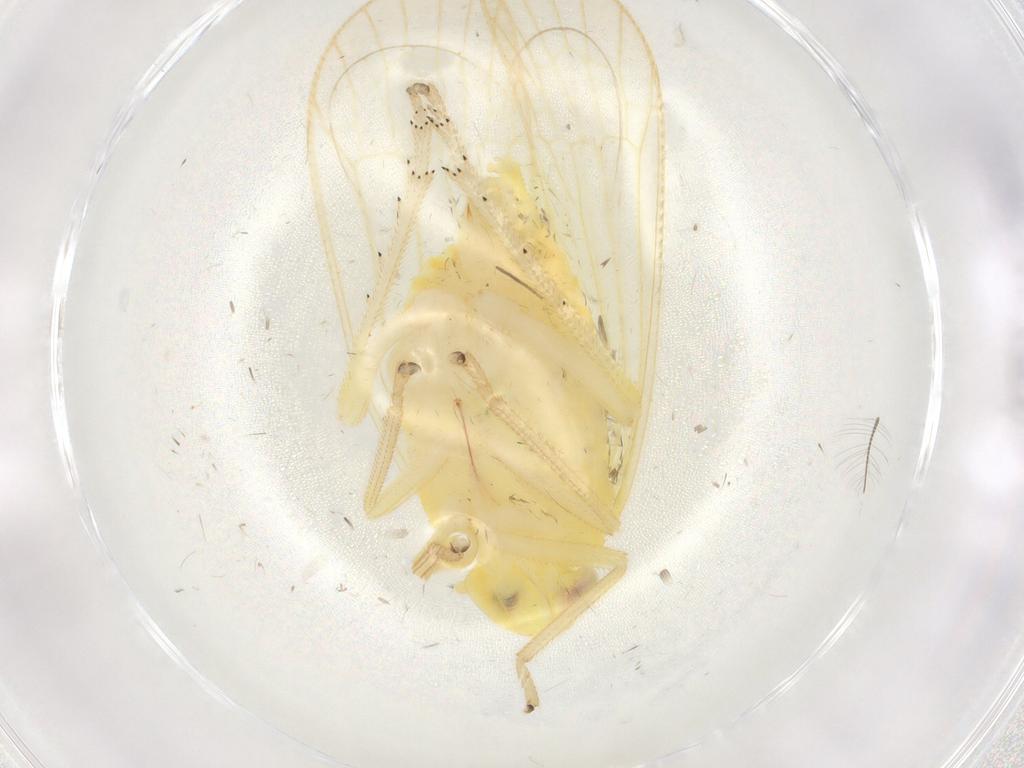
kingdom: Animalia
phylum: Arthropoda
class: Insecta
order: Hemiptera
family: Tropiduchidae
